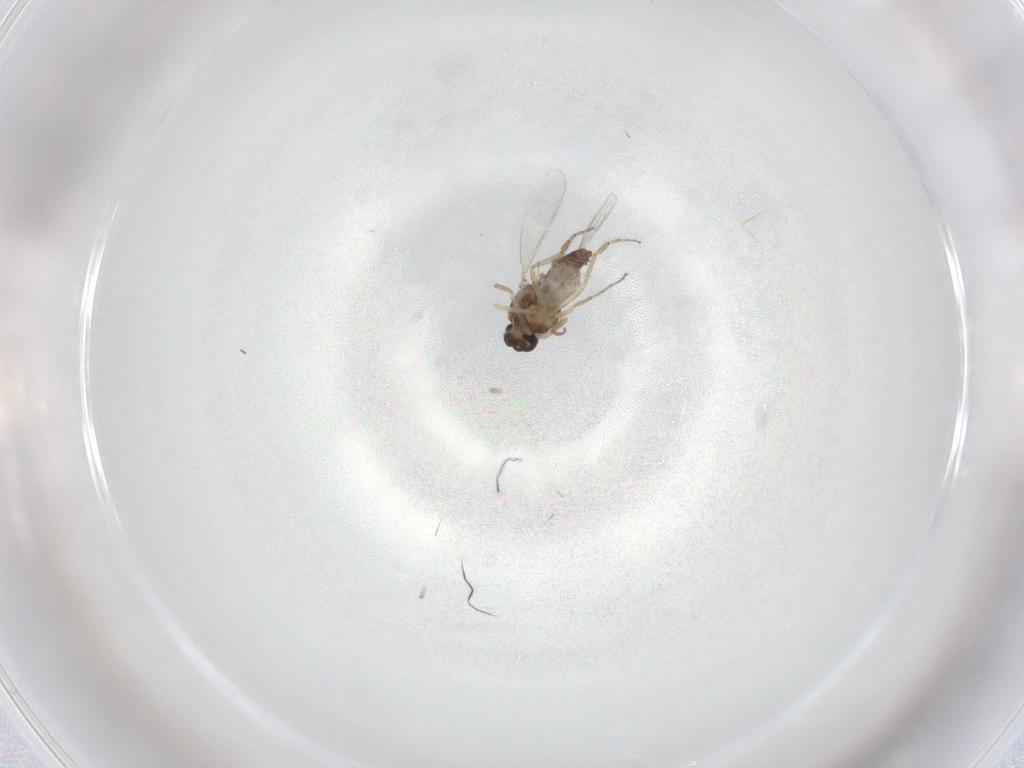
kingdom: Animalia
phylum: Arthropoda
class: Insecta
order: Diptera
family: Ceratopogonidae
